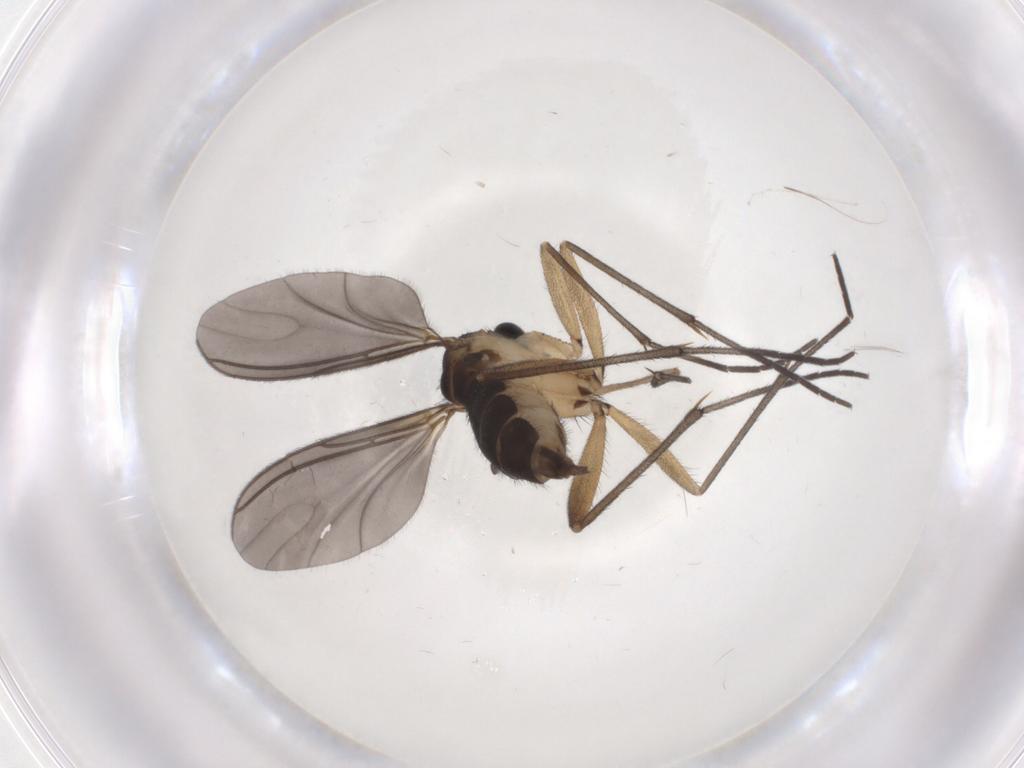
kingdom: Animalia
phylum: Arthropoda
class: Insecta
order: Diptera
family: Sciaridae
